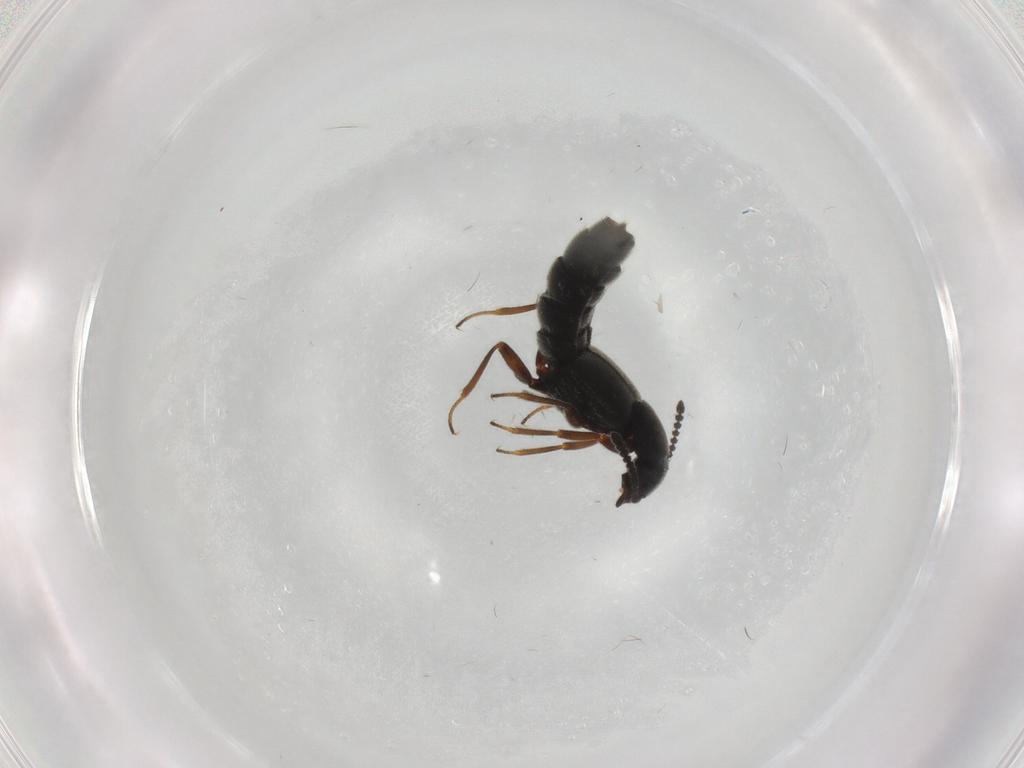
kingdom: Animalia
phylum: Arthropoda
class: Insecta
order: Coleoptera
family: Staphylinidae
